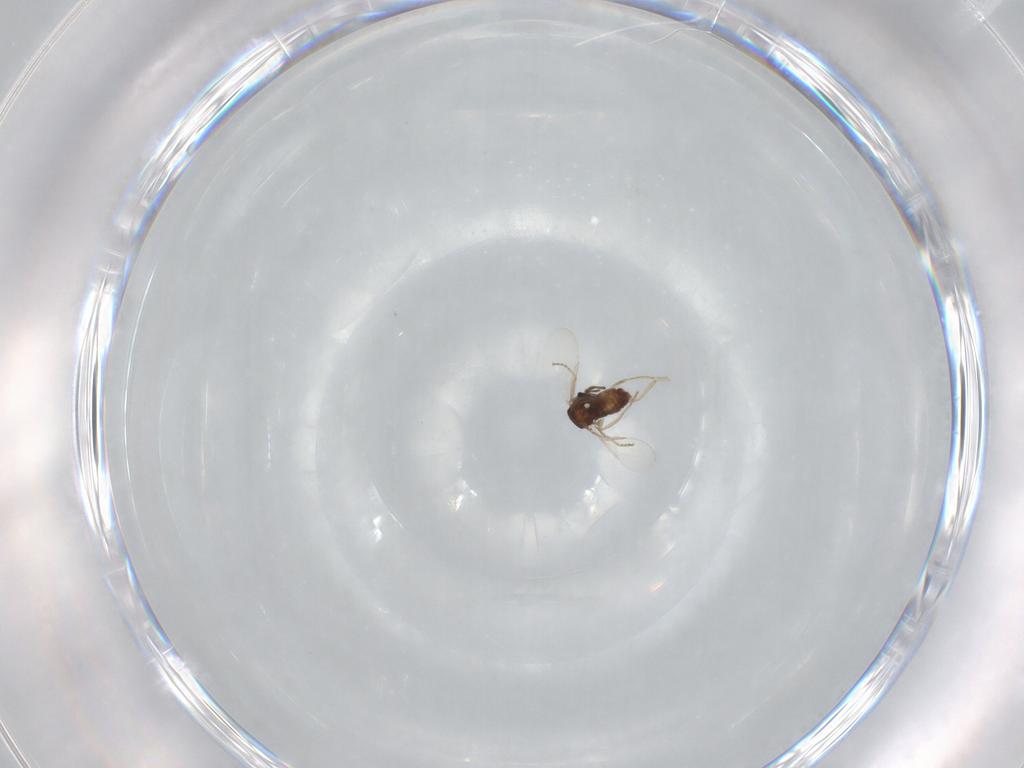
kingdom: Animalia
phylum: Arthropoda
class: Insecta
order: Diptera
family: Ceratopogonidae
